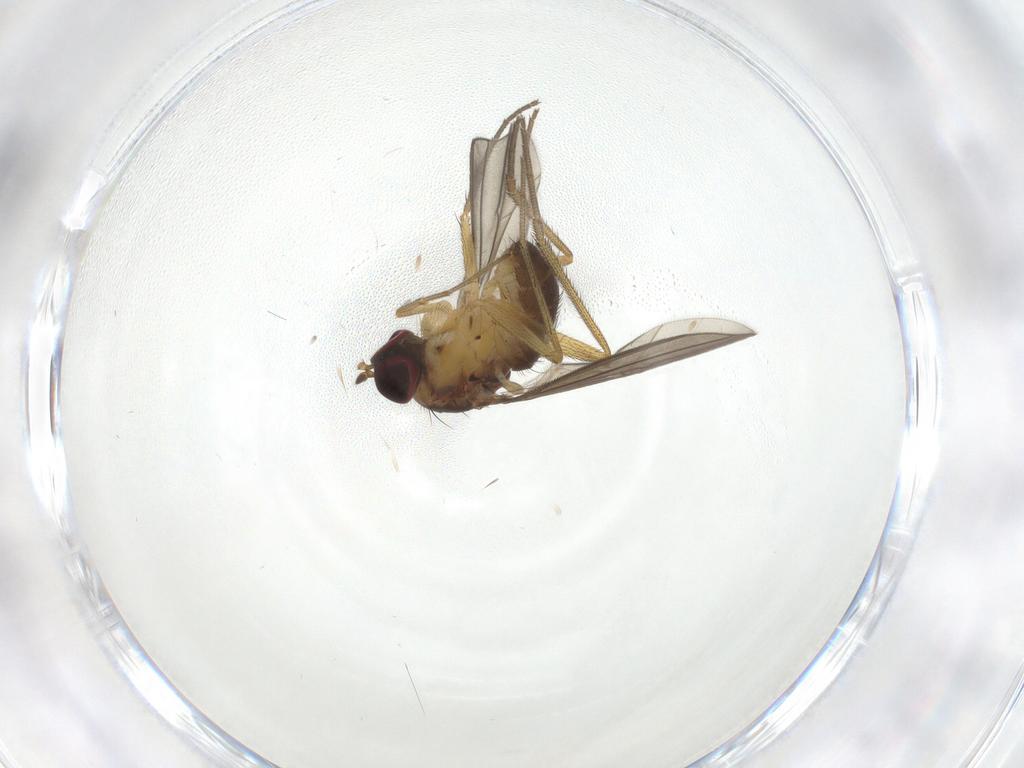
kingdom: Animalia
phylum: Arthropoda
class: Insecta
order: Diptera
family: Dolichopodidae
